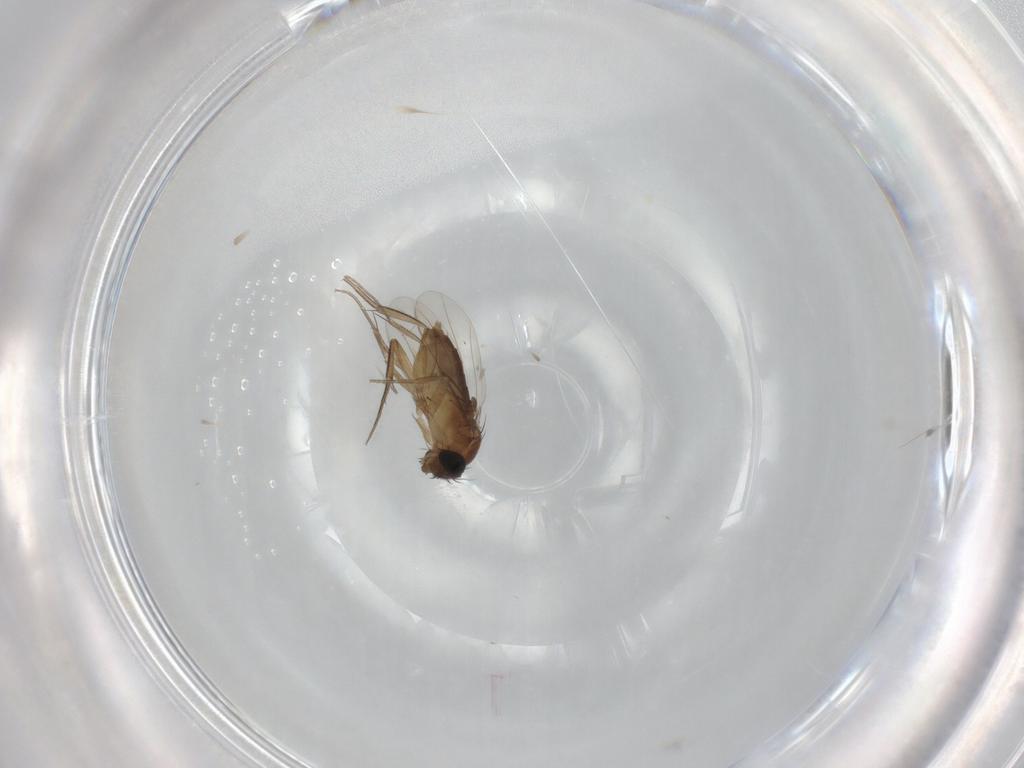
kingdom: Animalia
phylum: Arthropoda
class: Insecta
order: Diptera
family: Phoridae
